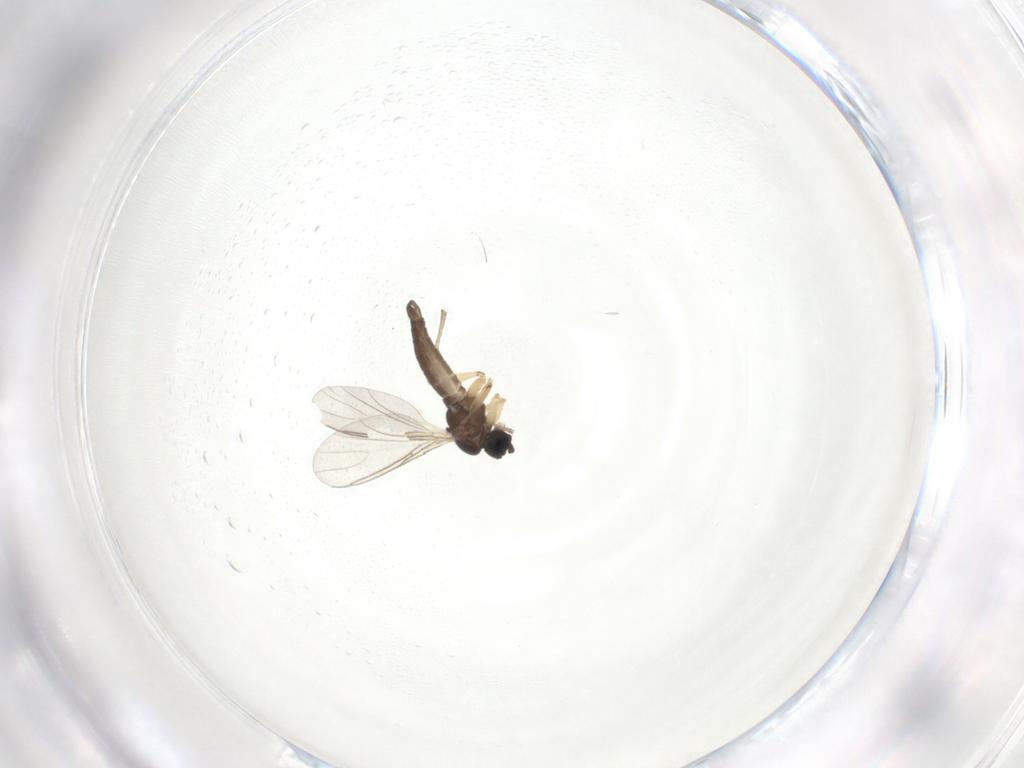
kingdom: Animalia
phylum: Arthropoda
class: Insecta
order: Diptera
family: Sciaridae
